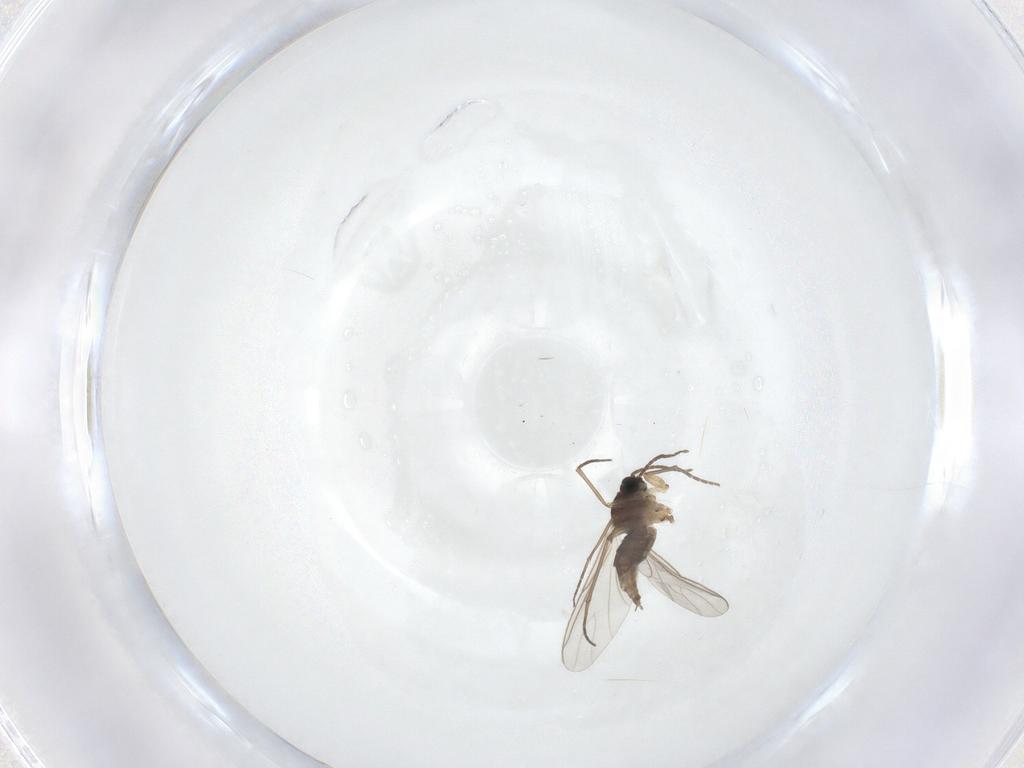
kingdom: Animalia
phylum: Arthropoda
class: Insecta
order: Diptera
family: Sciaridae
